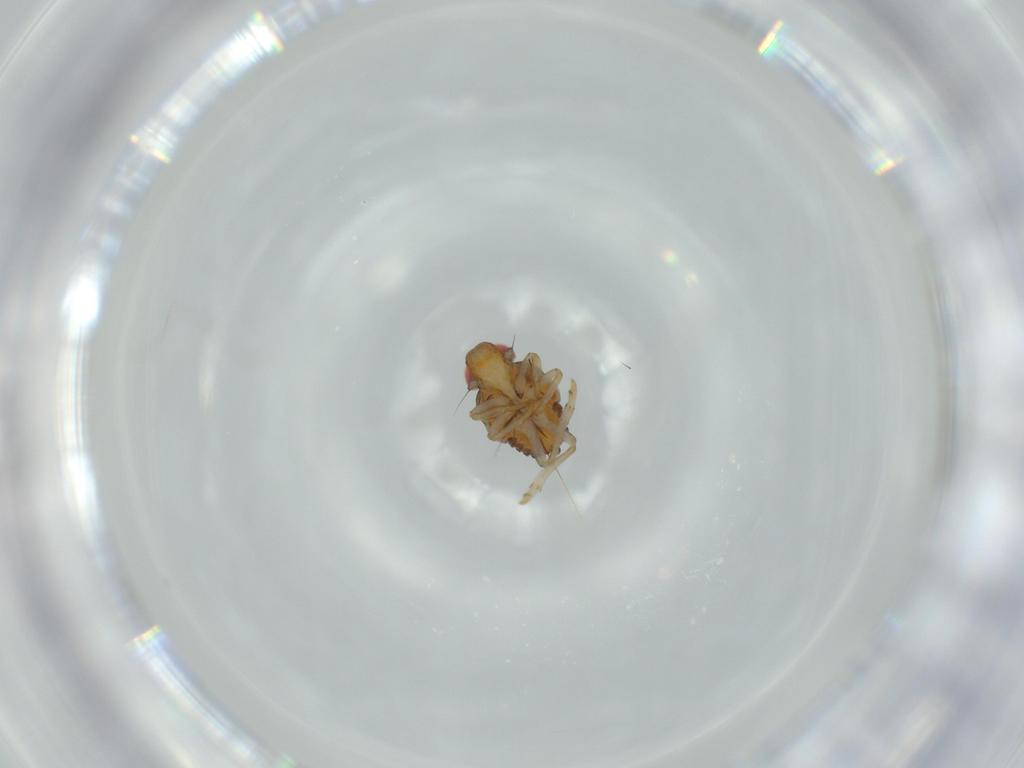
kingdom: Animalia
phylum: Arthropoda
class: Insecta
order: Hemiptera
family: Issidae
